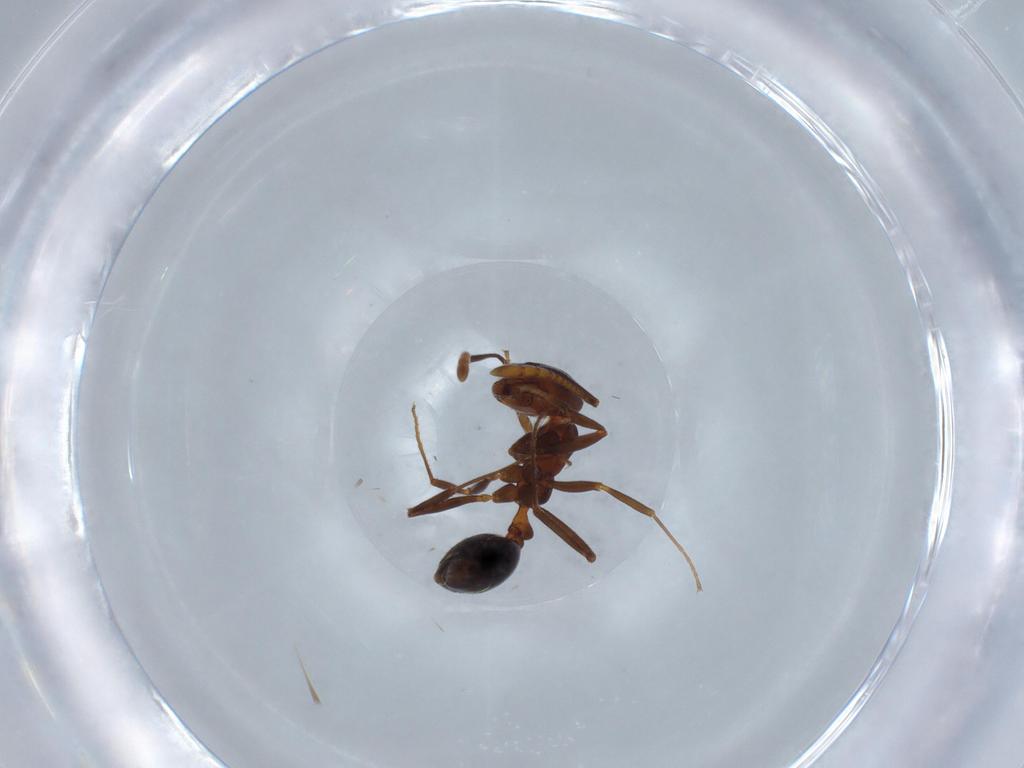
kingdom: Animalia
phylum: Arthropoda
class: Insecta
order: Hymenoptera
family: Formicidae
